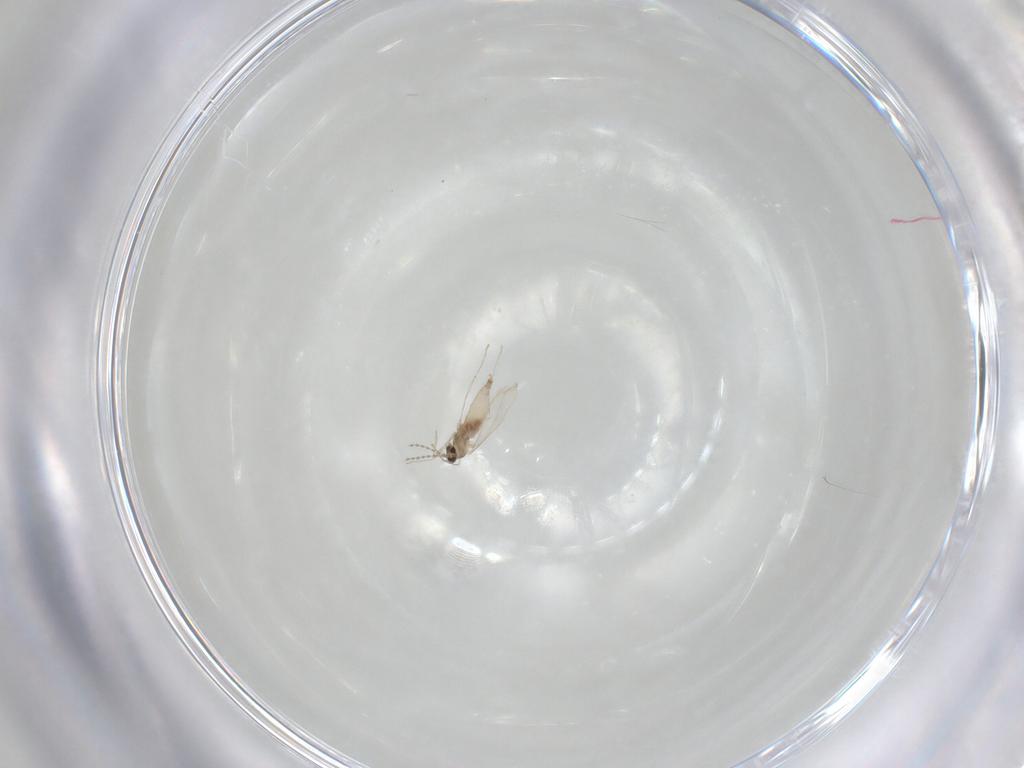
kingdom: Animalia
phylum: Arthropoda
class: Insecta
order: Diptera
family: Cecidomyiidae
